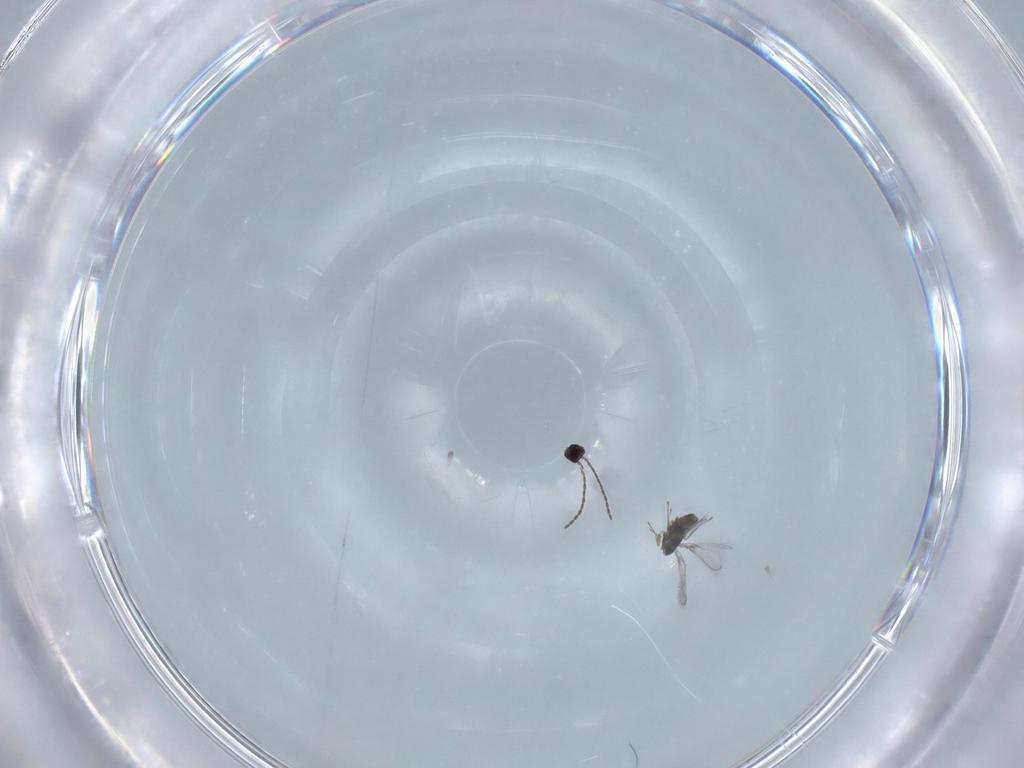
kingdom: Animalia
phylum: Arthropoda
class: Insecta
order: Hymenoptera
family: Mymaridae
